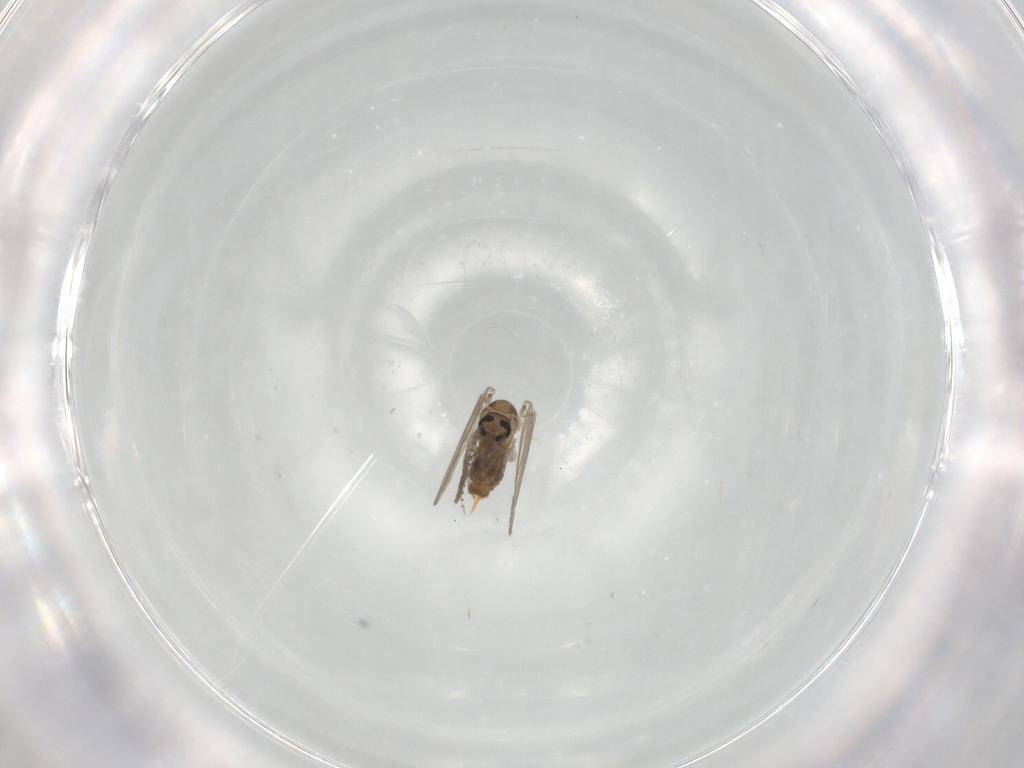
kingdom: Animalia
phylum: Arthropoda
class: Insecta
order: Diptera
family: Psychodidae
